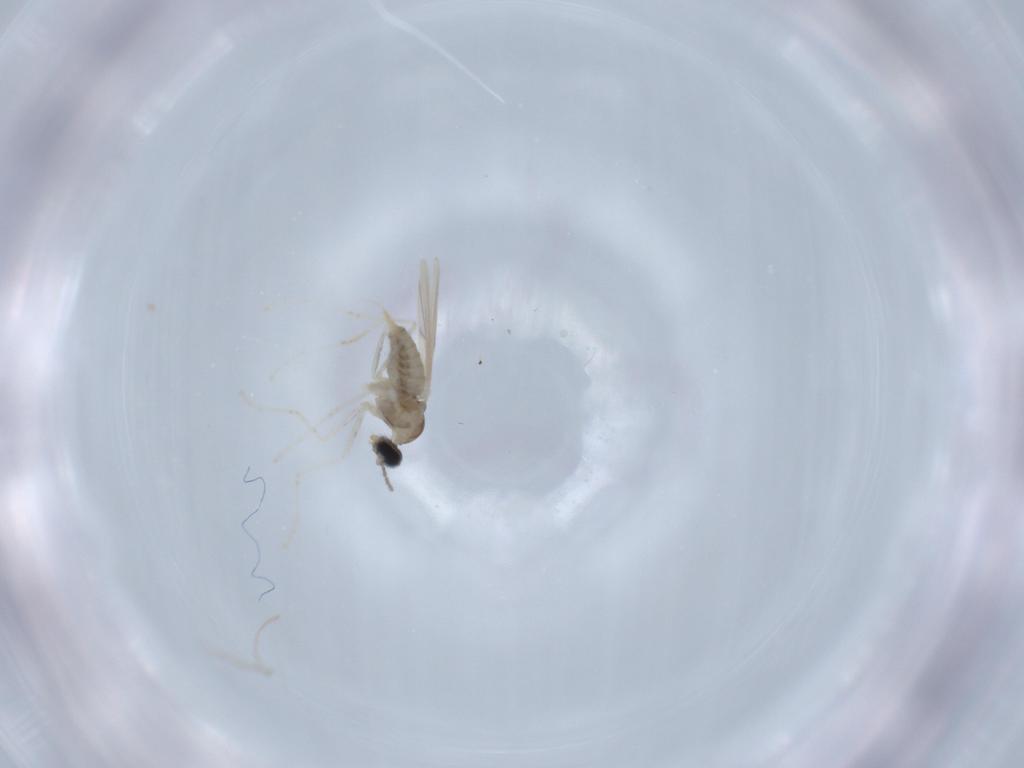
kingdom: Animalia
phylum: Arthropoda
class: Insecta
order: Diptera
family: Cecidomyiidae
